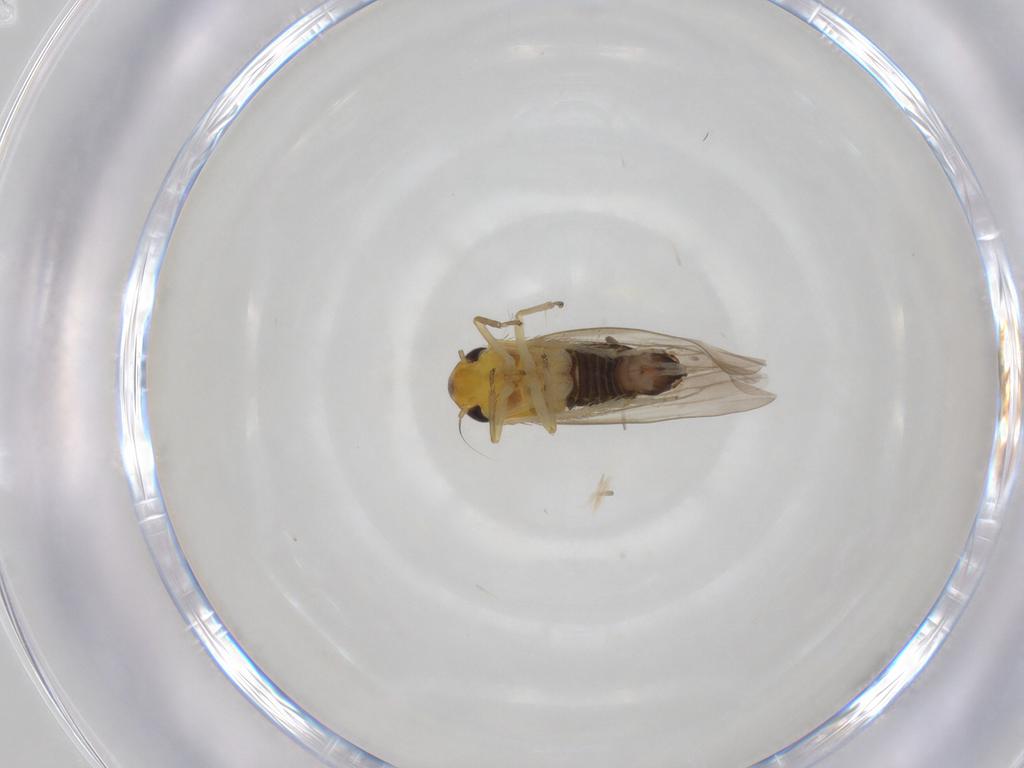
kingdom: Animalia
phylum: Arthropoda
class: Insecta
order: Hemiptera
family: Cicadellidae
